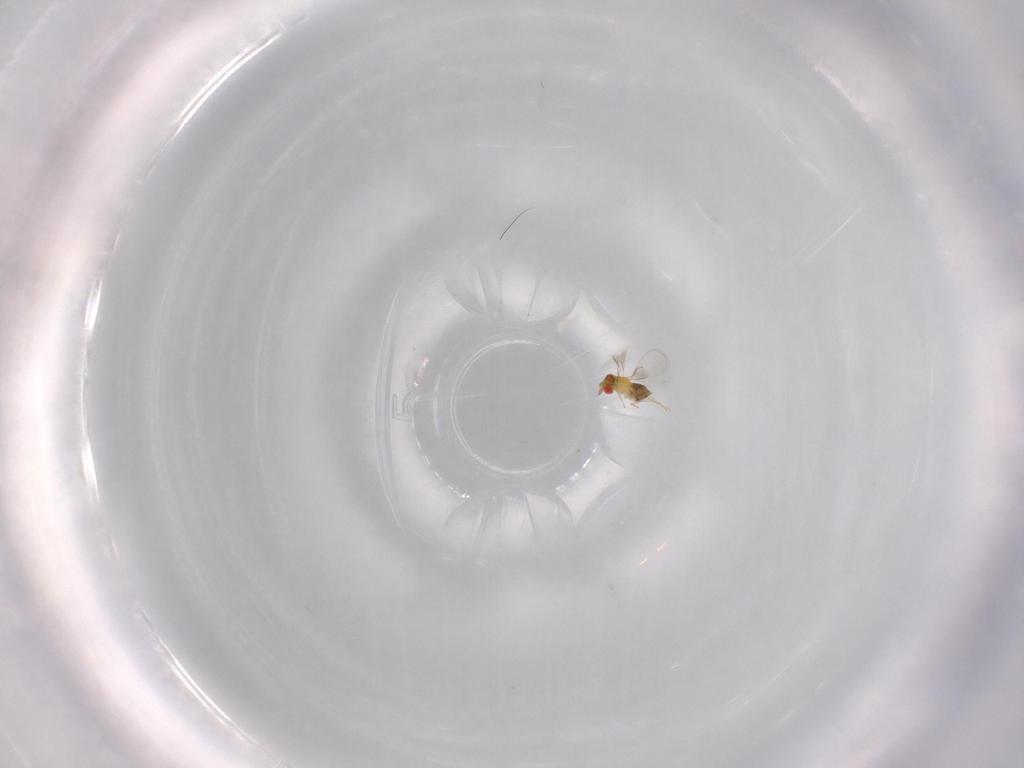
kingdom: Animalia
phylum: Arthropoda
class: Insecta
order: Hymenoptera
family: Trichogrammatidae
